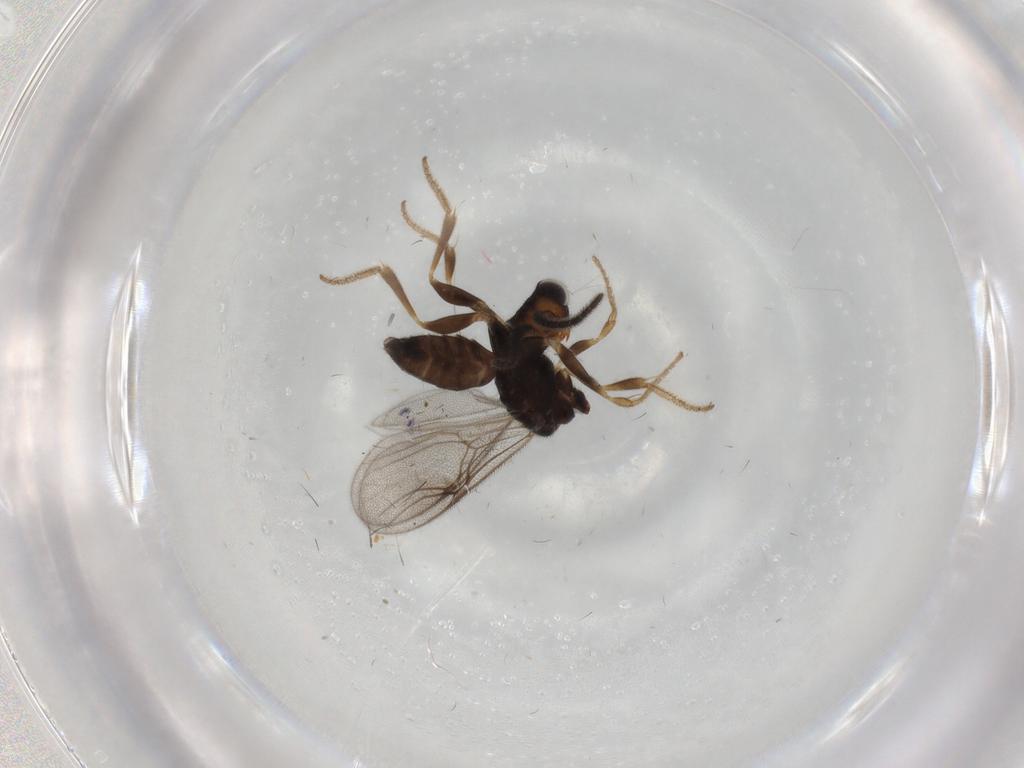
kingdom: Animalia
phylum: Arthropoda
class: Insecta
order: Hymenoptera
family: Dryinidae
